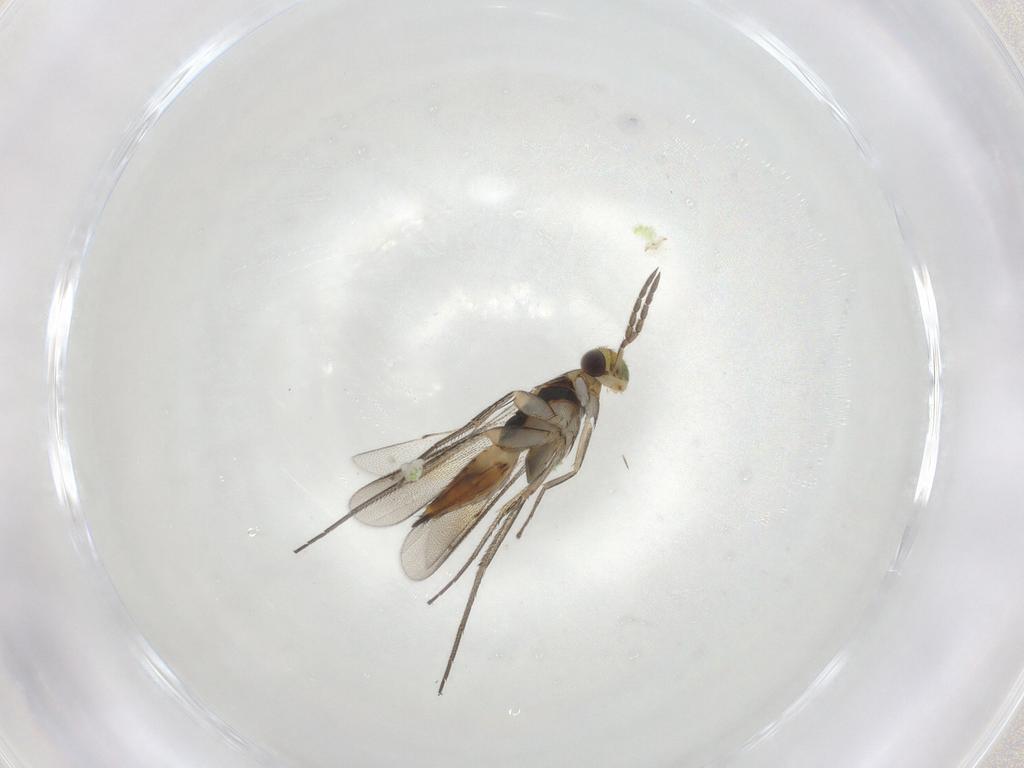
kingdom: Animalia
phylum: Arthropoda
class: Insecta
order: Hymenoptera
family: Eulophidae
